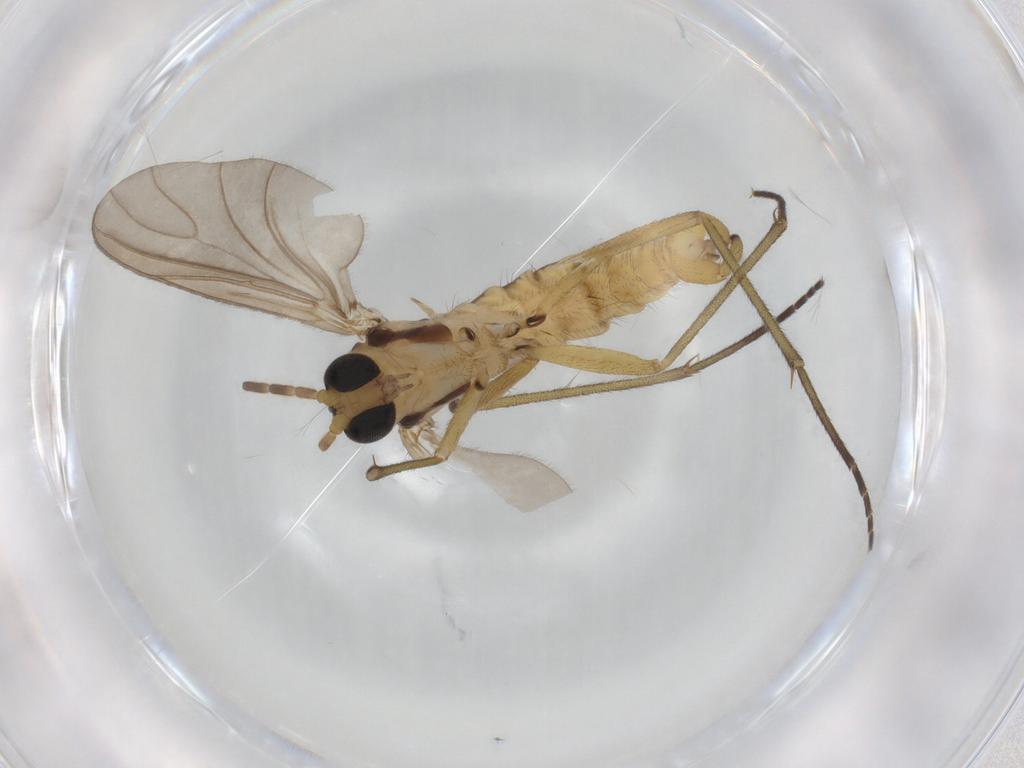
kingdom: Animalia
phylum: Arthropoda
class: Insecta
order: Diptera
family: Sciaridae
